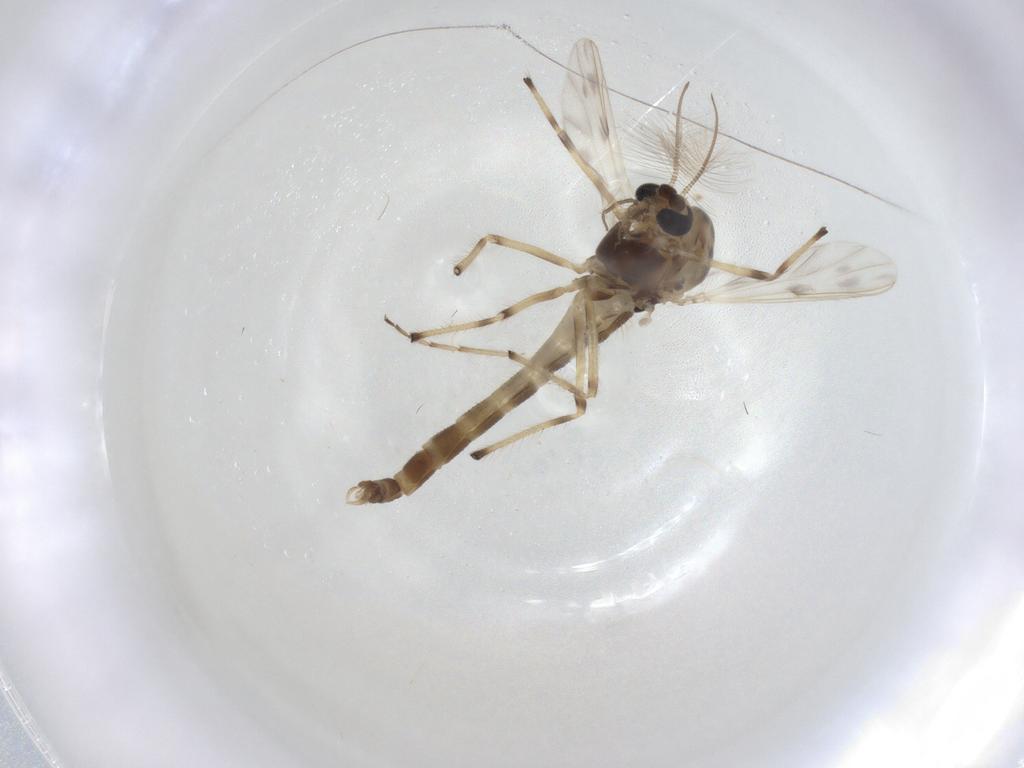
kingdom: Animalia
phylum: Arthropoda
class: Insecta
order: Diptera
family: Chironomidae
